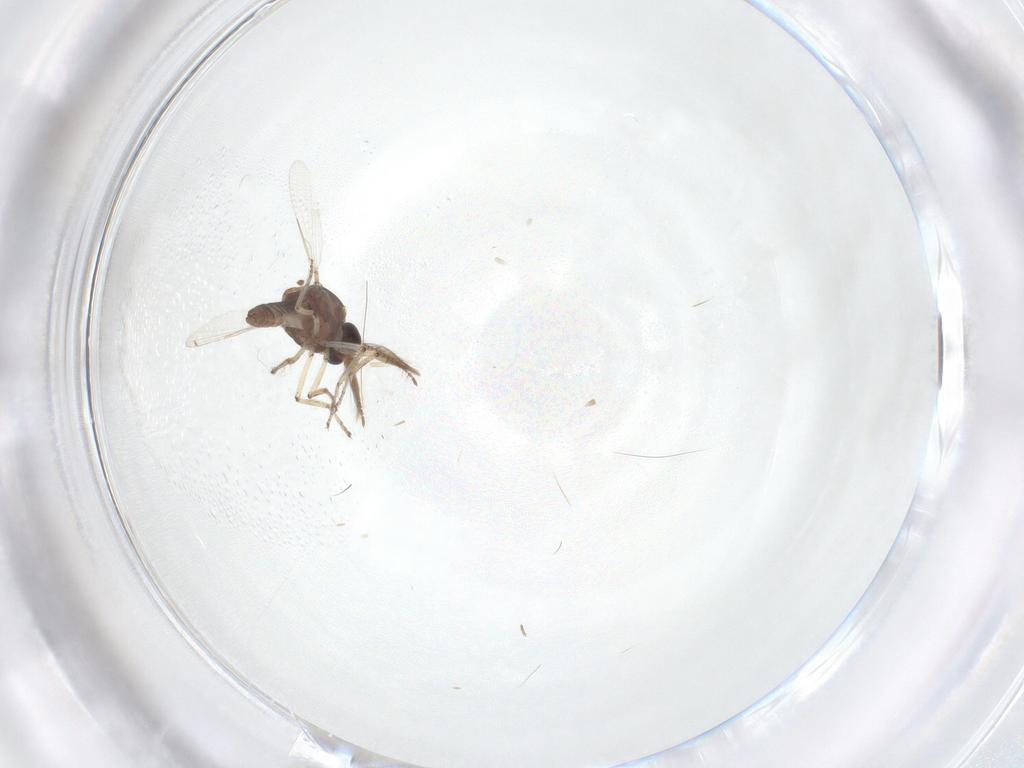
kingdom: Animalia
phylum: Arthropoda
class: Insecta
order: Diptera
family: Ceratopogonidae
